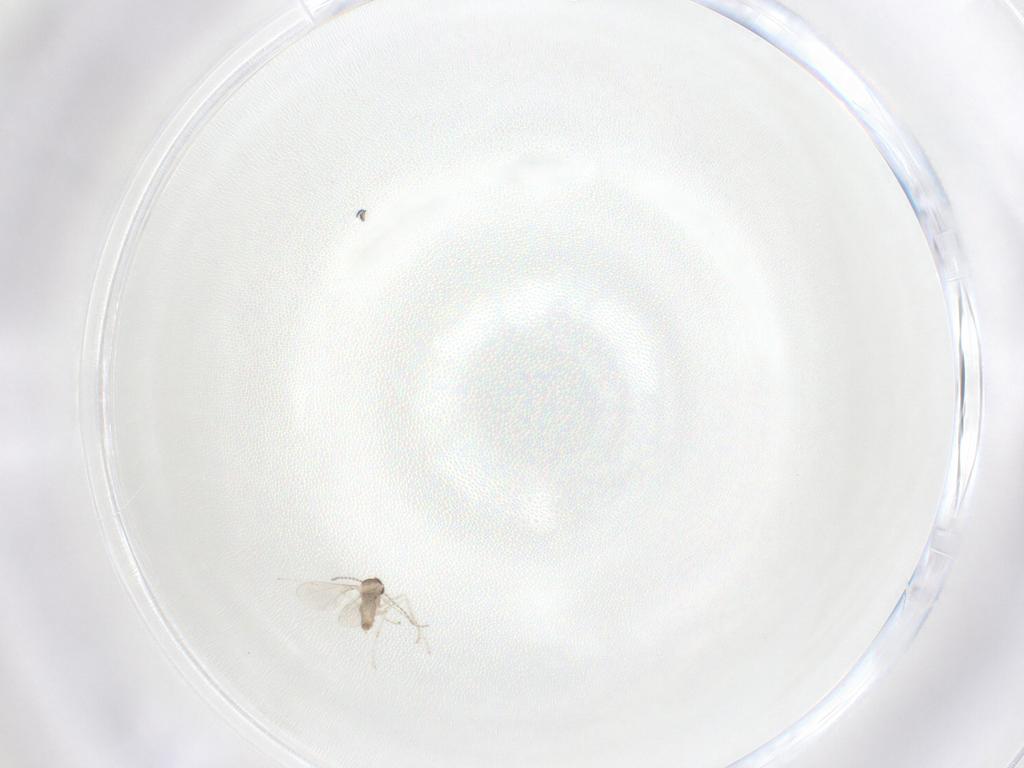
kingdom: Animalia
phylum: Arthropoda
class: Insecta
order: Diptera
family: Cecidomyiidae
